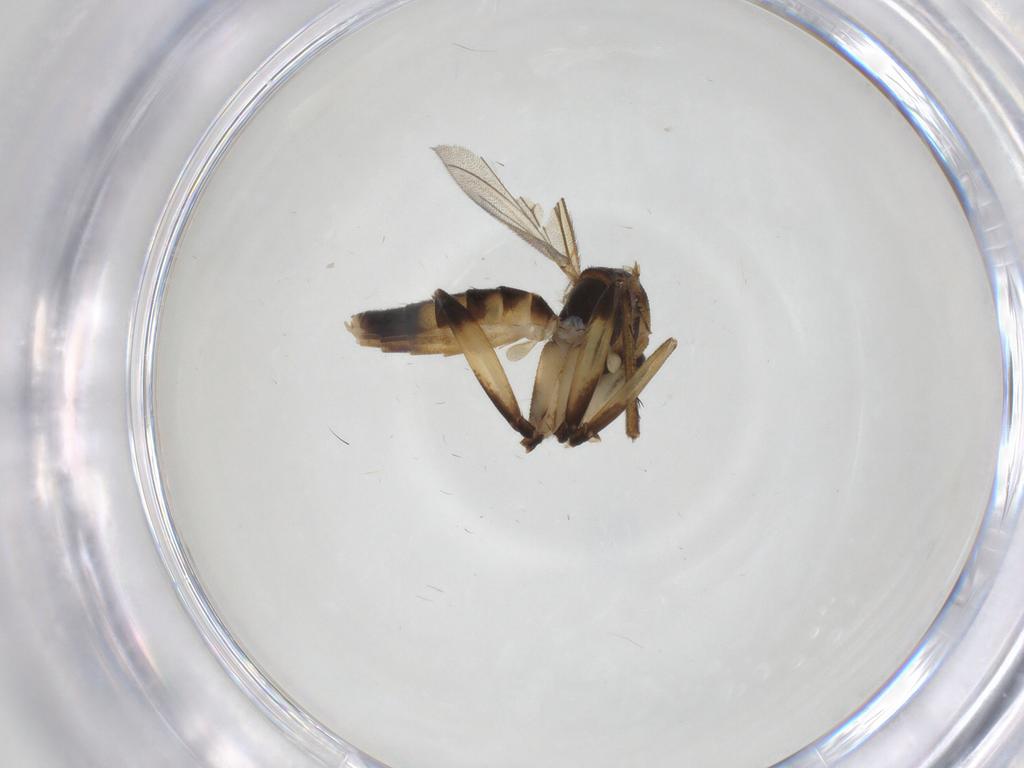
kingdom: Animalia
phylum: Arthropoda
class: Insecta
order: Diptera
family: Mycetophilidae
